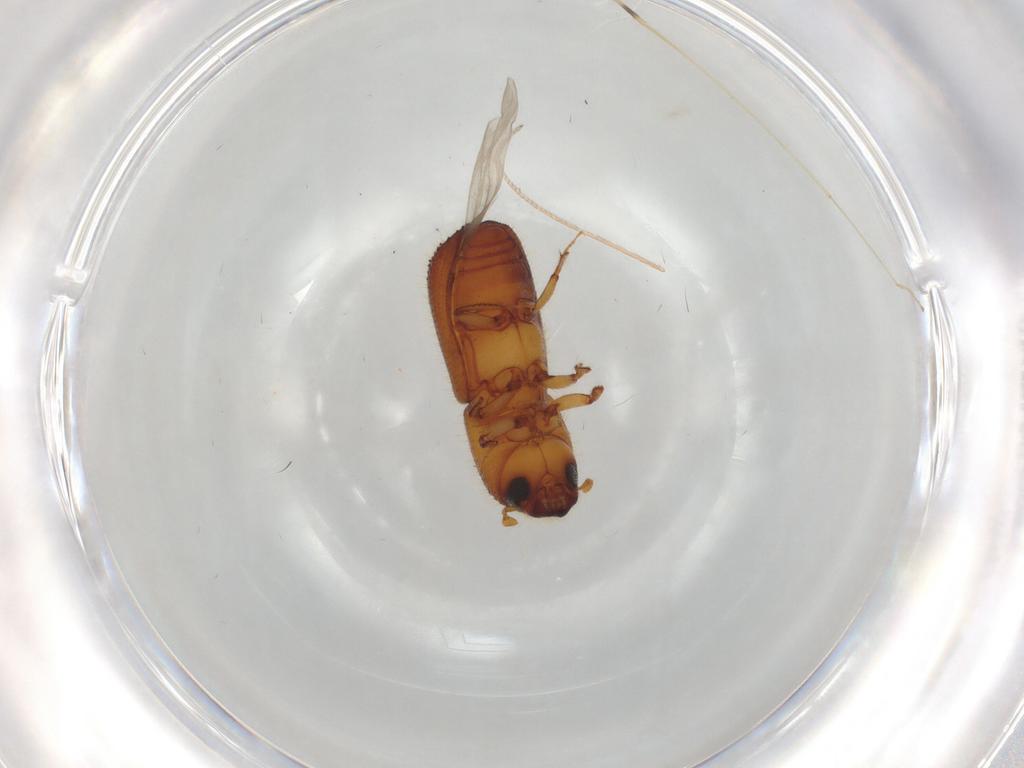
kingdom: Animalia
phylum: Arthropoda
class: Insecta
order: Coleoptera
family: Curculionidae
